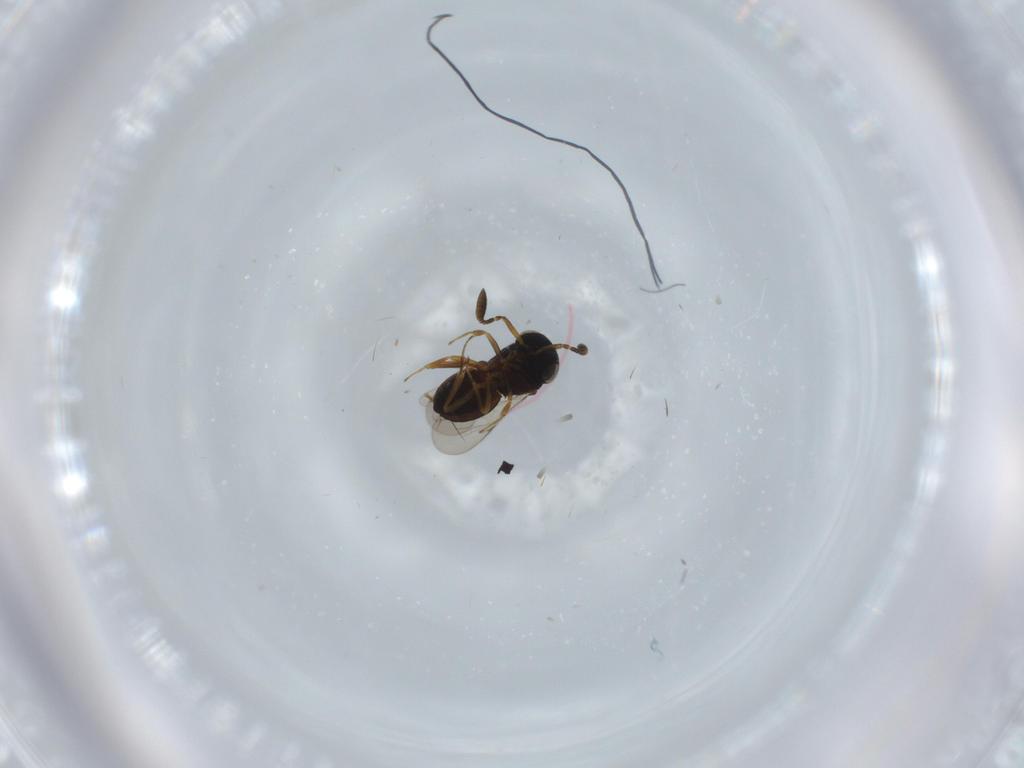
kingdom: Animalia
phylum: Arthropoda
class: Insecta
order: Coleoptera
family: Curculionidae
